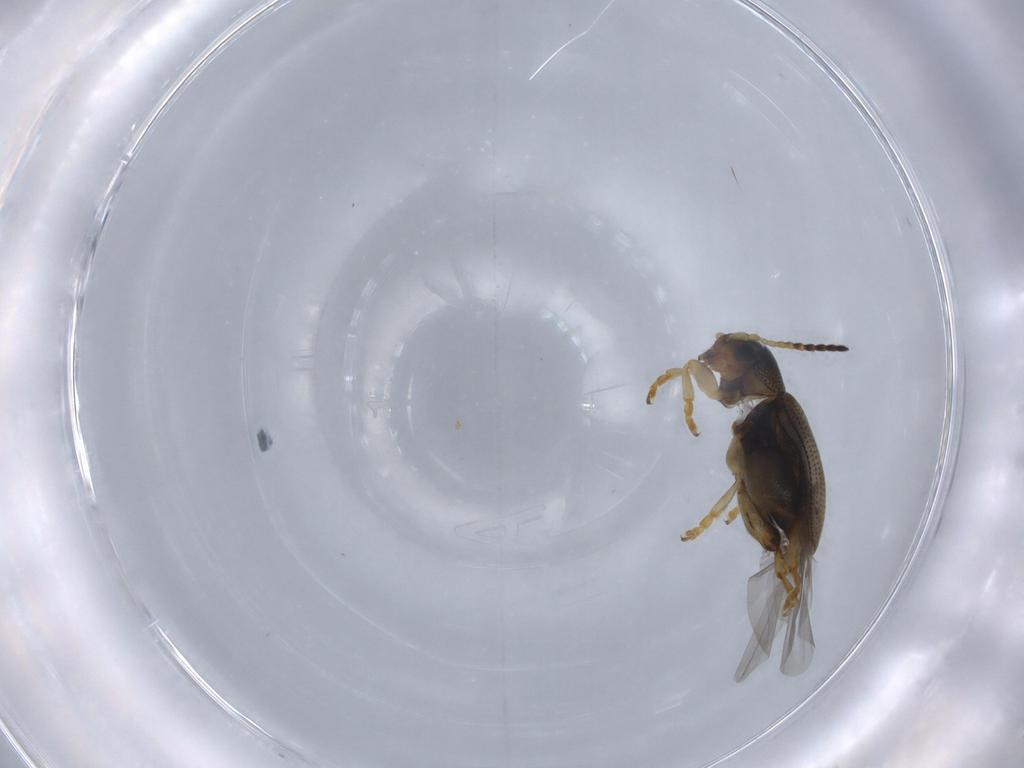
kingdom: Animalia
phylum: Arthropoda
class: Insecta
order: Coleoptera
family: Chrysomelidae
